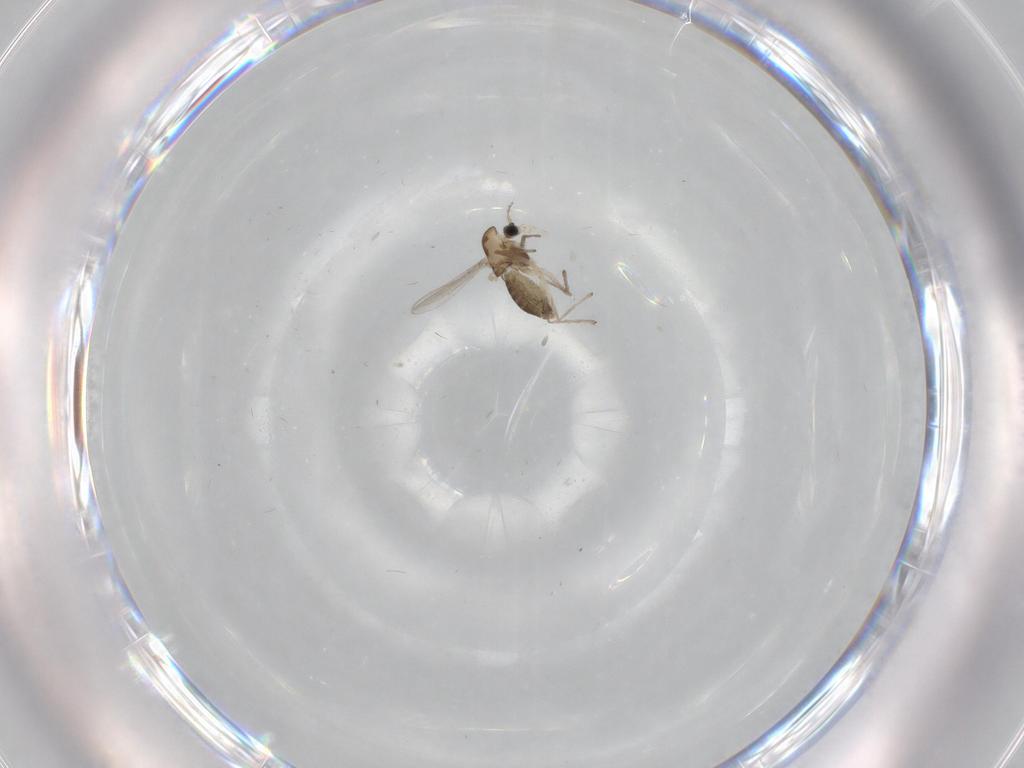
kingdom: Animalia
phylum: Arthropoda
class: Insecta
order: Diptera
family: Chironomidae
